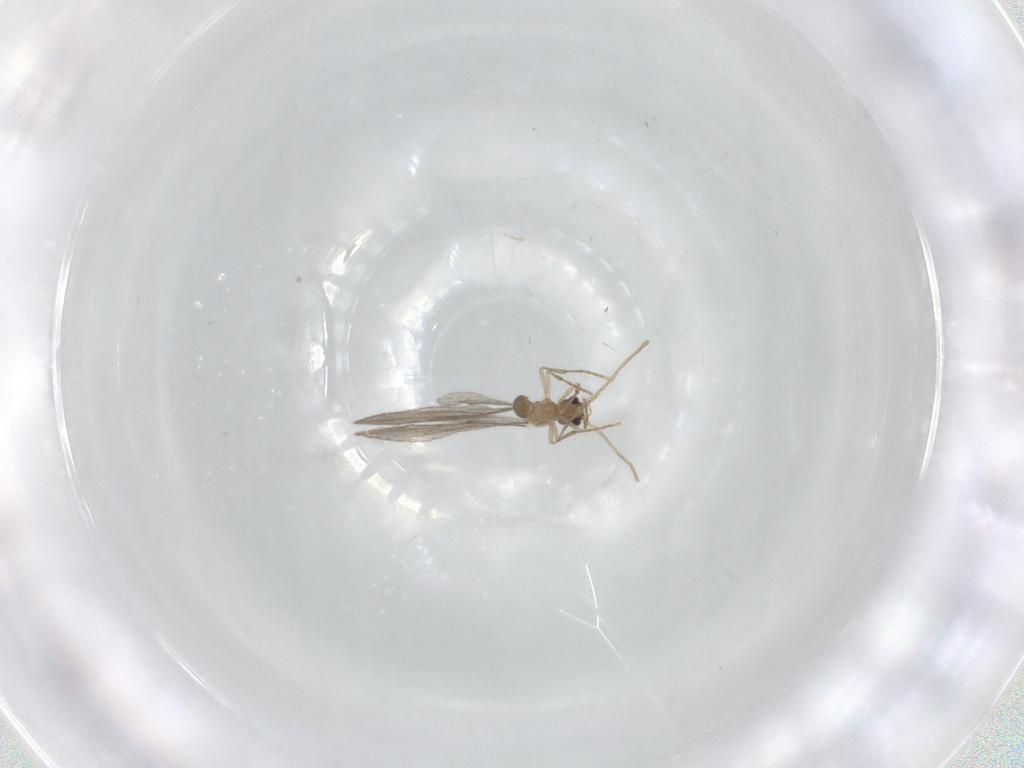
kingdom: Animalia
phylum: Arthropoda
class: Insecta
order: Hymenoptera
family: Formicidae
